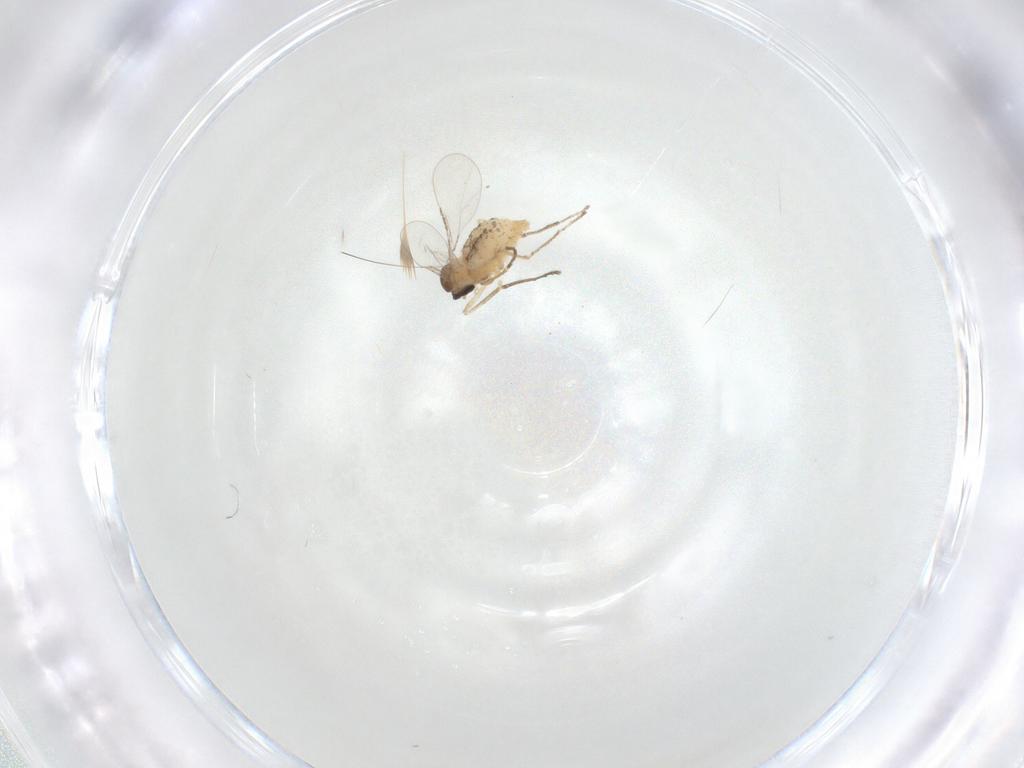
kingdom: Animalia
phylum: Arthropoda
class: Insecta
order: Diptera
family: Cecidomyiidae
